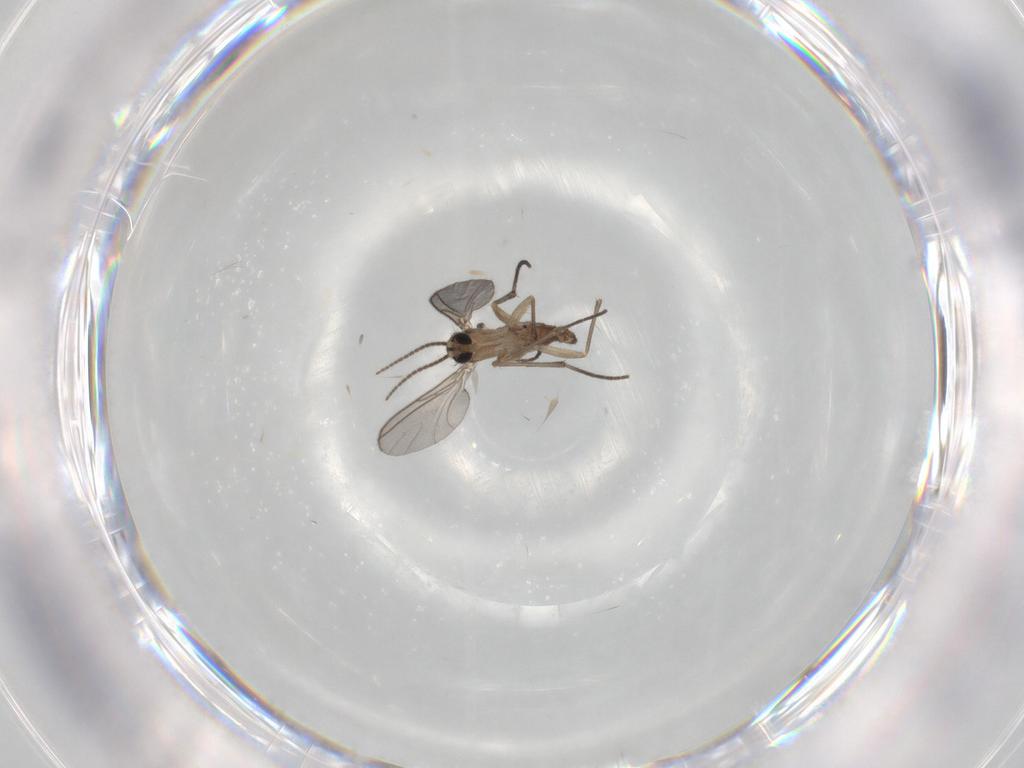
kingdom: Animalia
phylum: Arthropoda
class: Insecta
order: Diptera
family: Sciaridae
